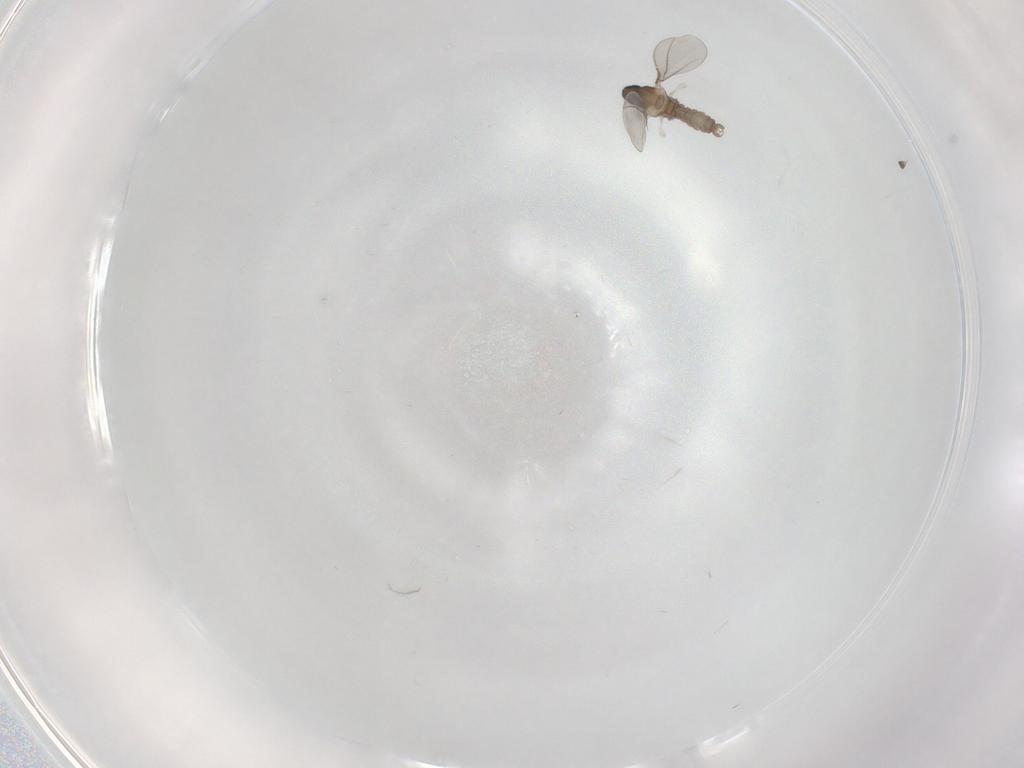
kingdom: Animalia
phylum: Arthropoda
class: Insecta
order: Diptera
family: Cecidomyiidae
